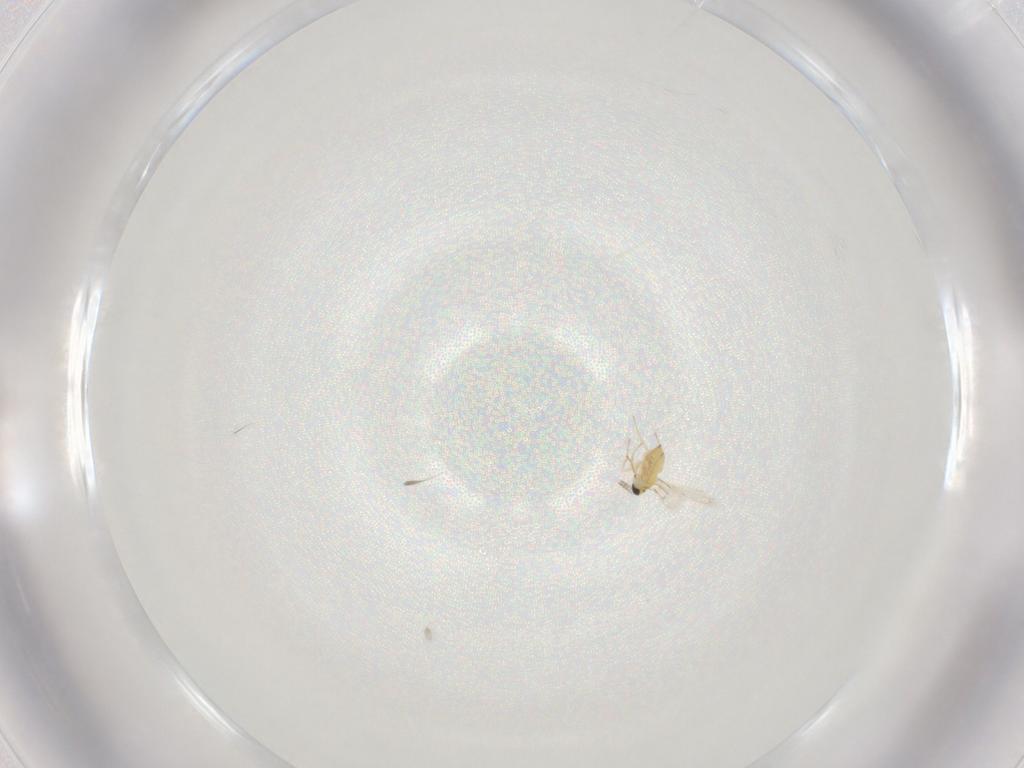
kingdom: Animalia
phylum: Arthropoda
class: Insecta
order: Hymenoptera
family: Trichogrammatidae
